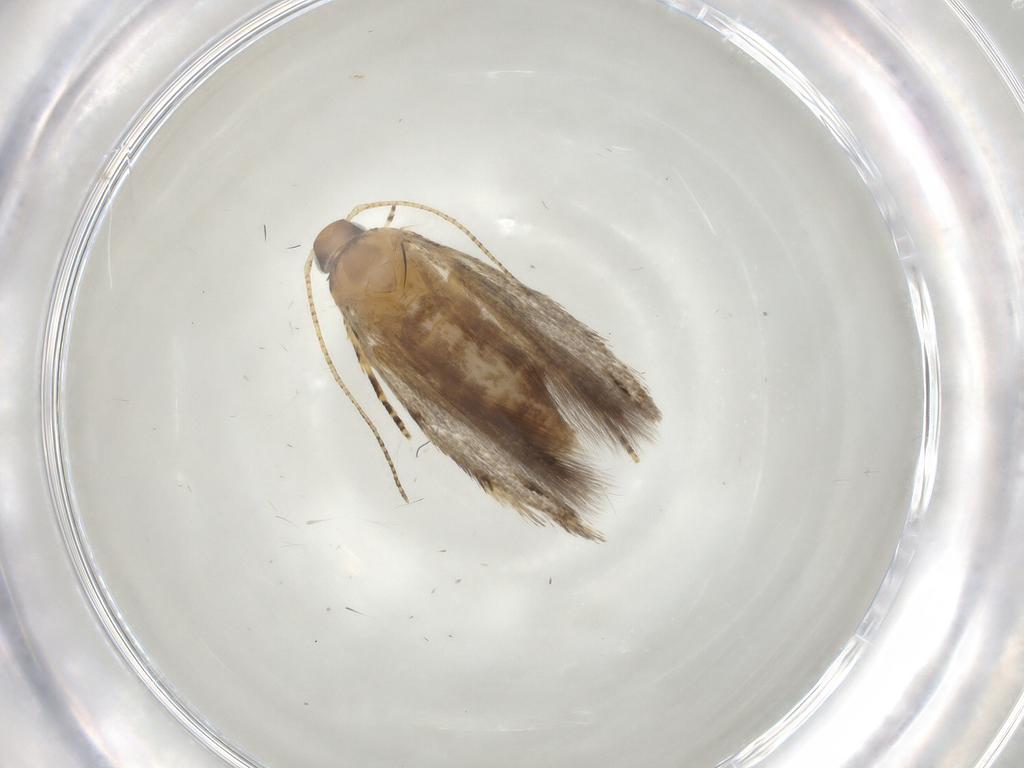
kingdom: Animalia
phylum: Arthropoda
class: Insecta
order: Lepidoptera
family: Gelechiidae
